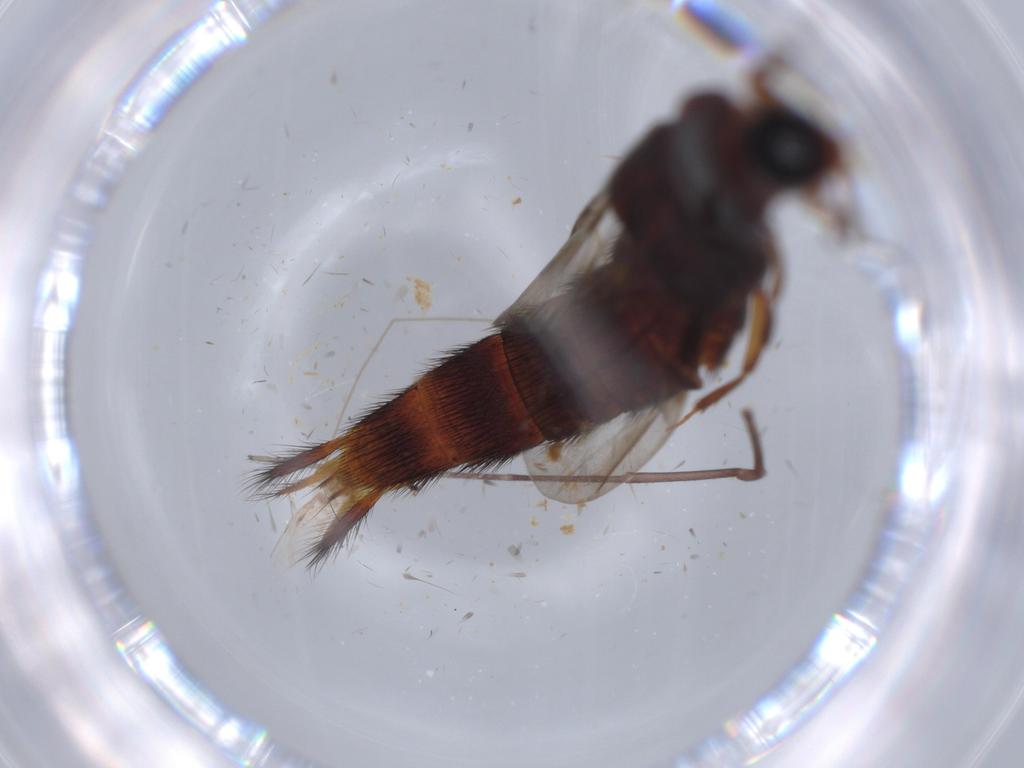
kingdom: Animalia
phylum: Arthropoda
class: Insecta
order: Coleoptera
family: Staphylinidae
